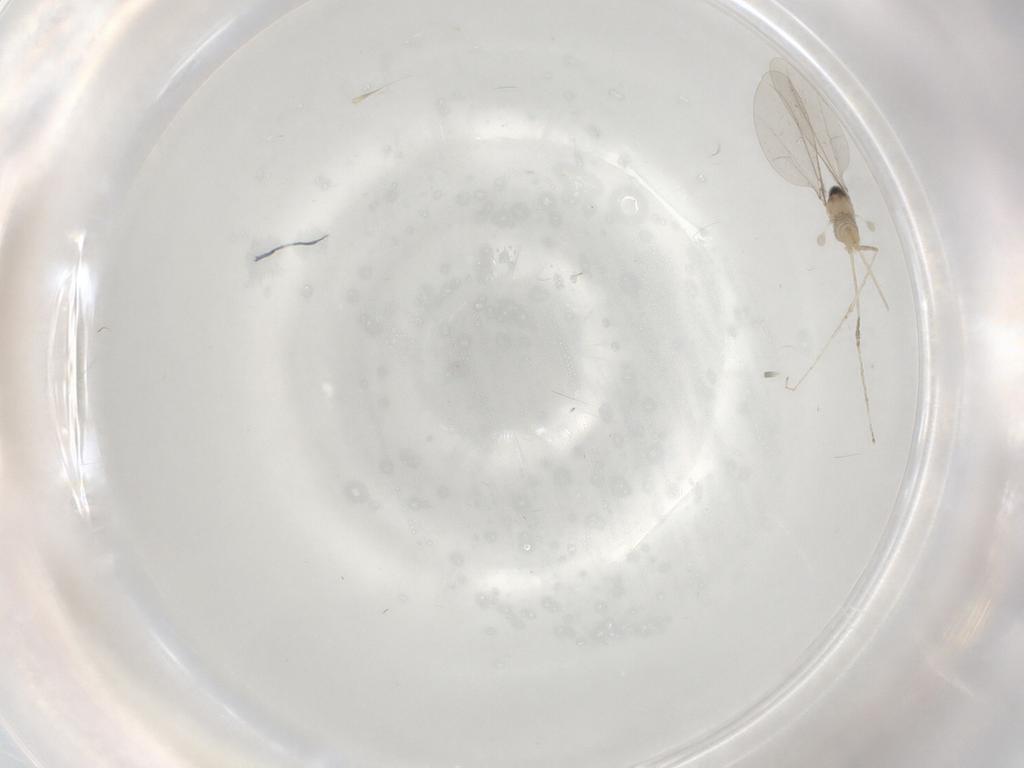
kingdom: Animalia
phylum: Arthropoda
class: Insecta
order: Diptera
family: Cecidomyiidae
